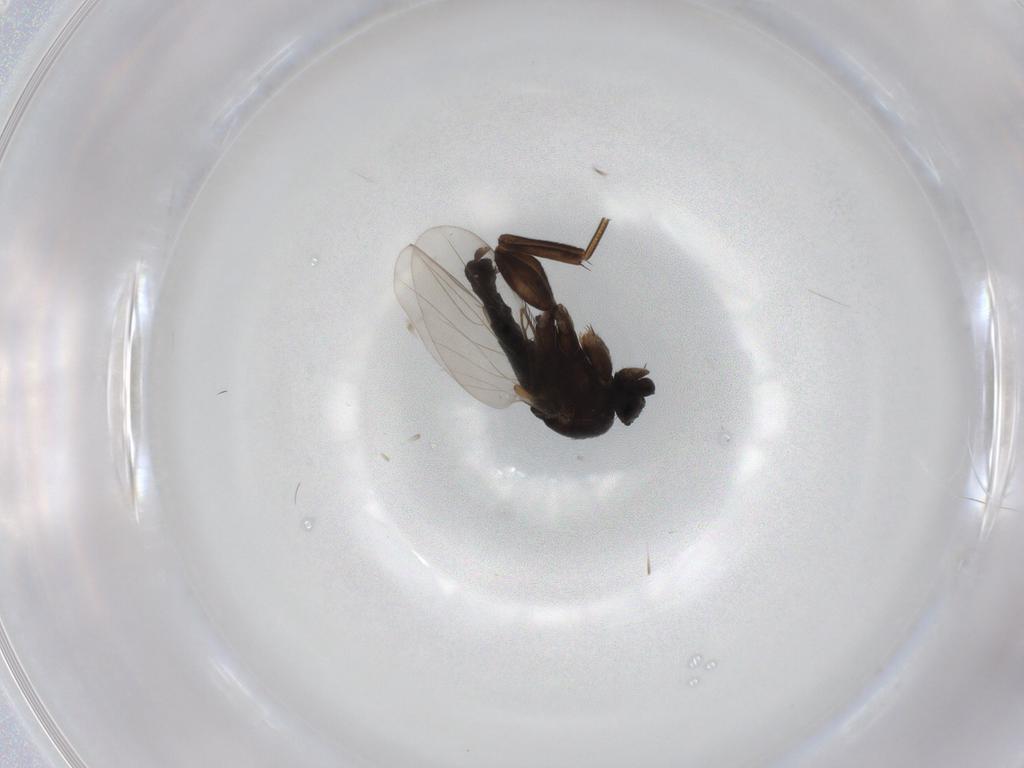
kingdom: Animalia
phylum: Arthropoda
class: Insecta
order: Diptera
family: Phoridae
